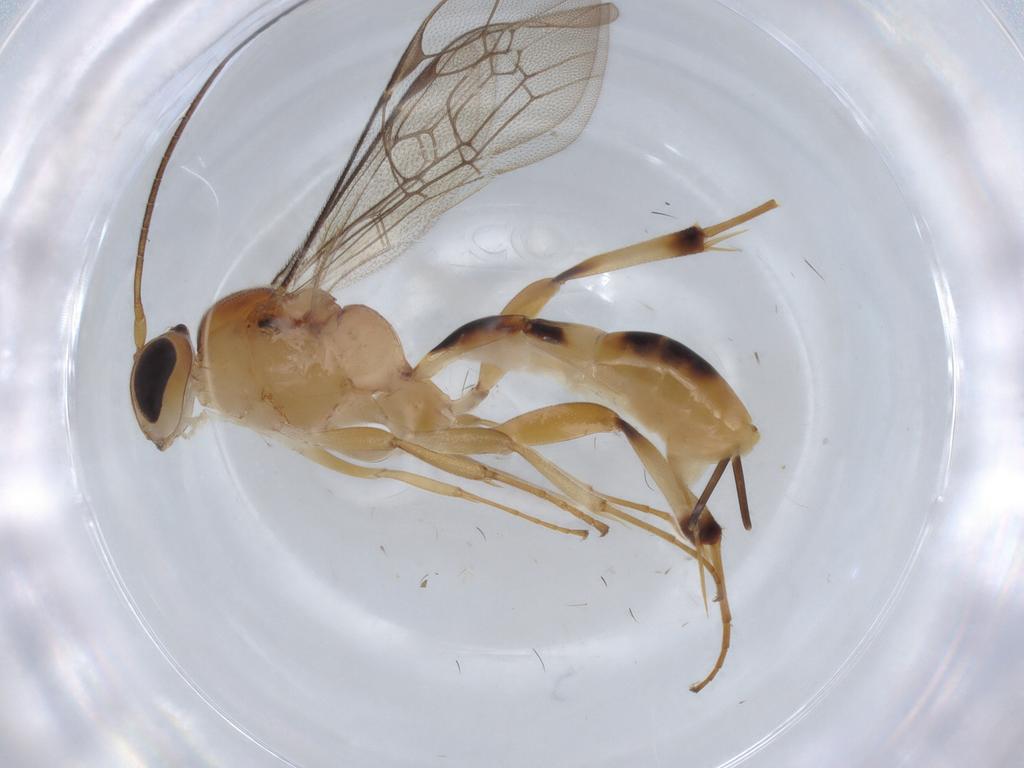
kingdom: Animalia
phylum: Arthropoda
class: Insecta
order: Hymenoptera
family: Ichneumonidae
